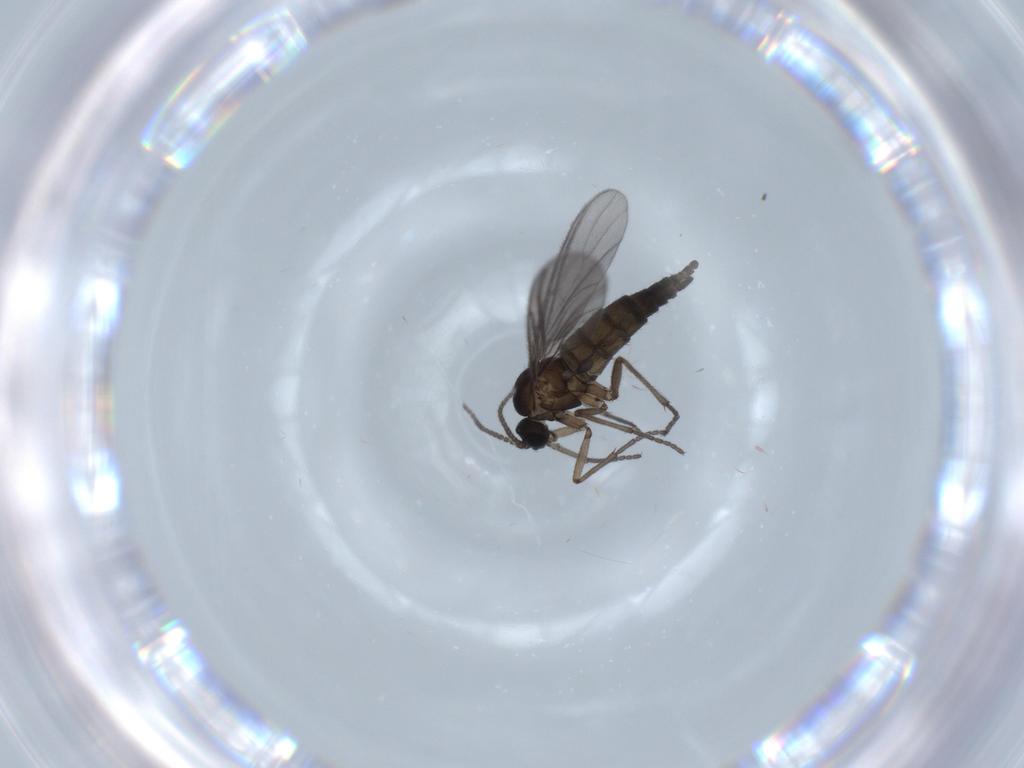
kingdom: Animalia
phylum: Arthropoda
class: Insecta
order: Diptera
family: Sciaridae
